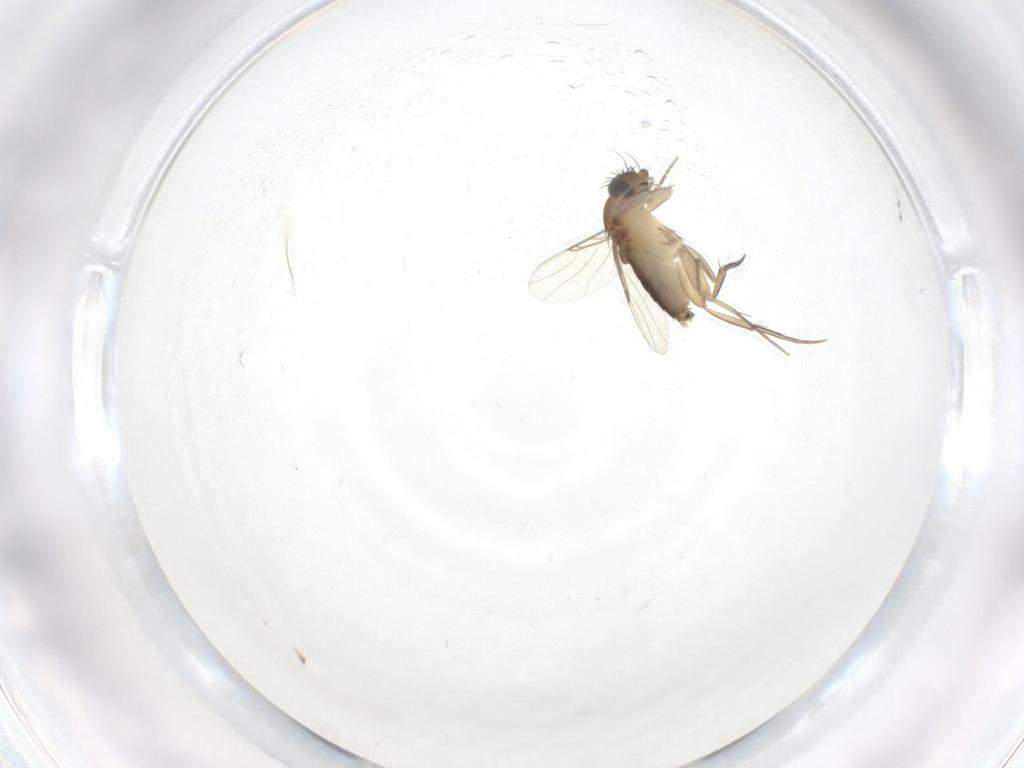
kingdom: Animalia
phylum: Arthropoda
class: Insecta
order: Diptera
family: Phoridae
